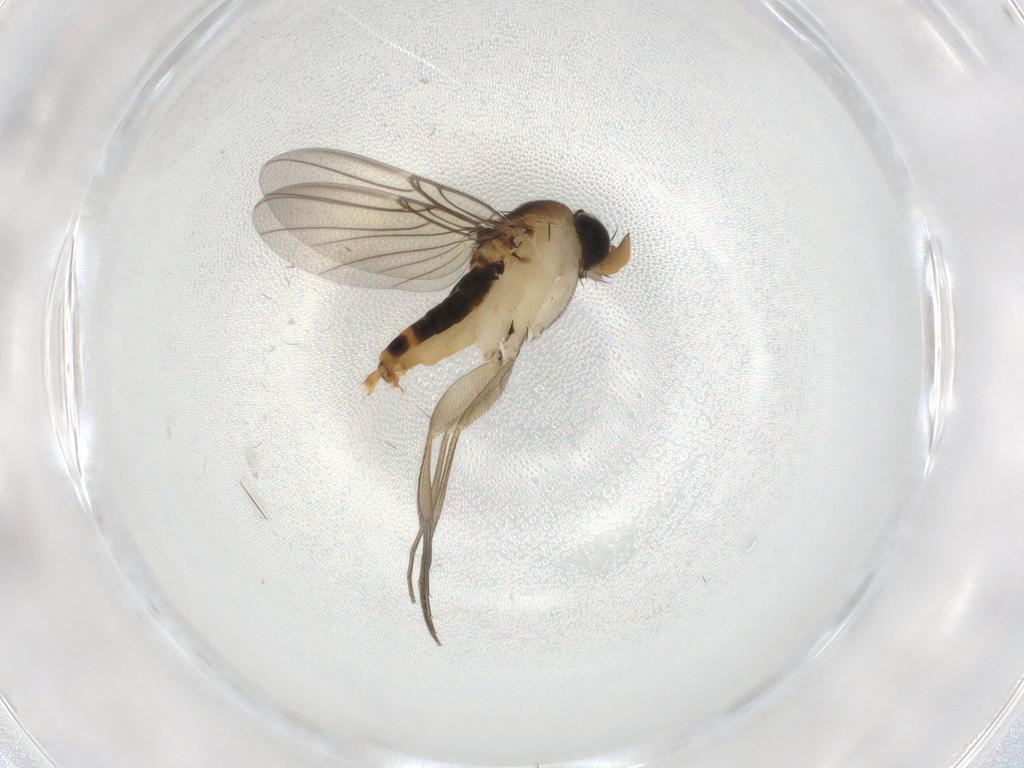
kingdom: Animalia
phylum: Arthropoda
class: Insecta
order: Diptera
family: Phoridae
